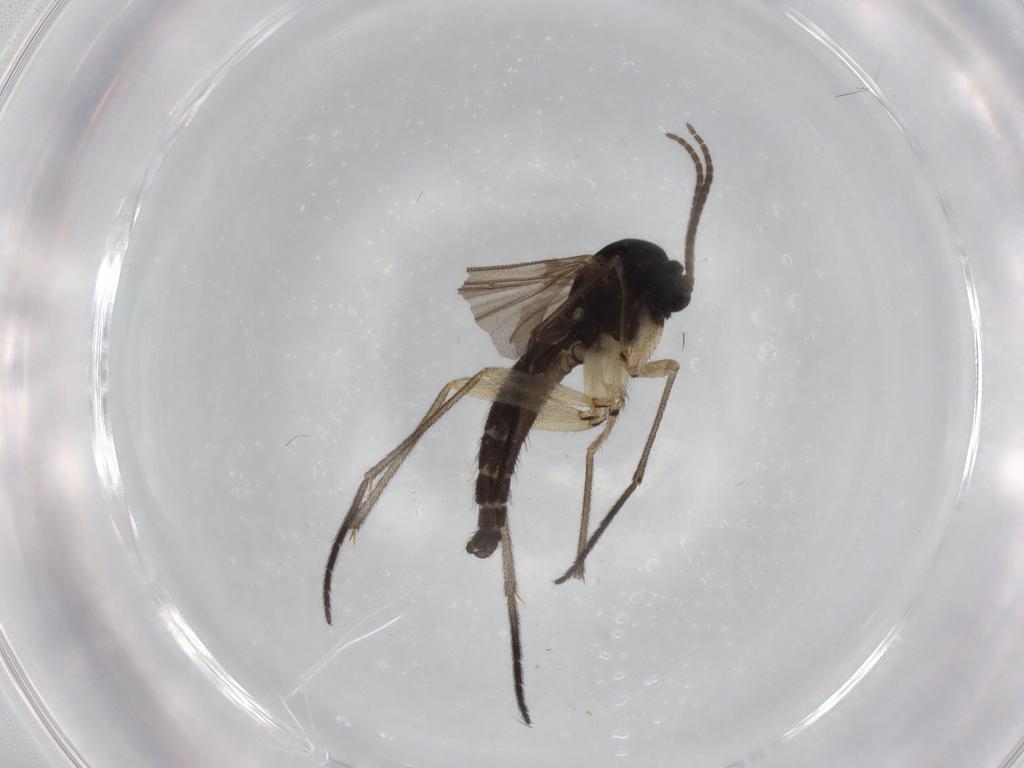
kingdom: Animalia
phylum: Arthropoda
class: Insecta
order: Diptera
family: Sciaridae
